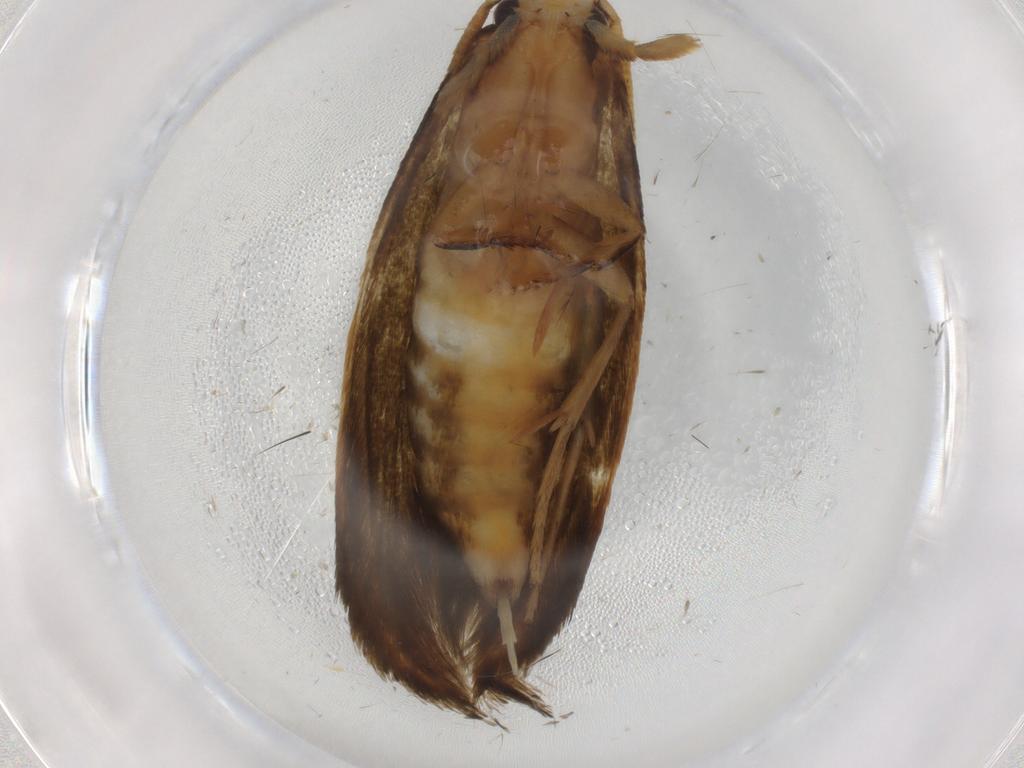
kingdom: Animalia
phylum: Arthropoda
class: Insecta
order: Lepidoptera
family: Tineidae
